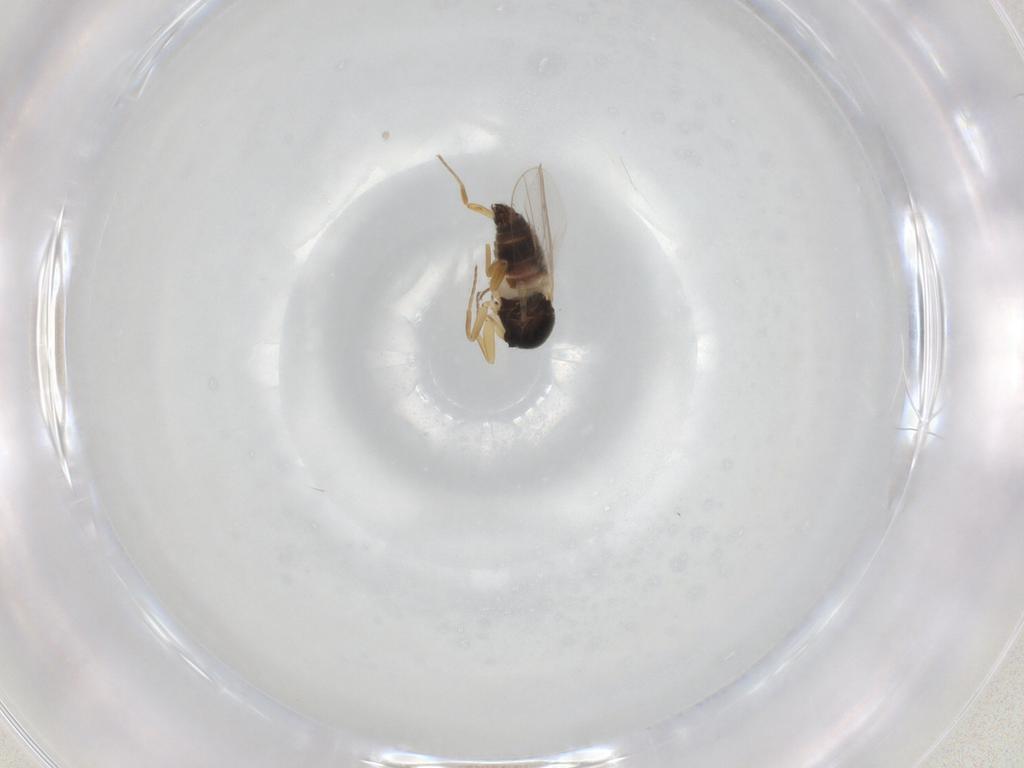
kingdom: Animalia
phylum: Arthropoda
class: Insecta
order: Diptera
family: Hybotidae
